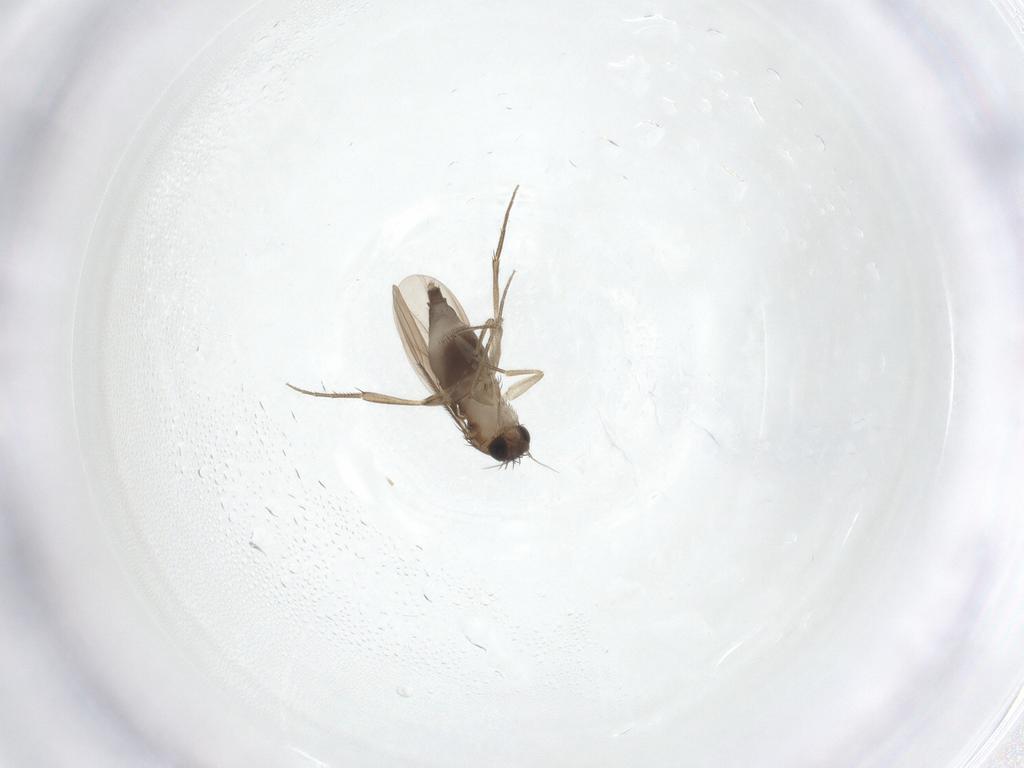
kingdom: Animalia
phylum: Arthropoda
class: Insecta
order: Diptera
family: Phoridae
